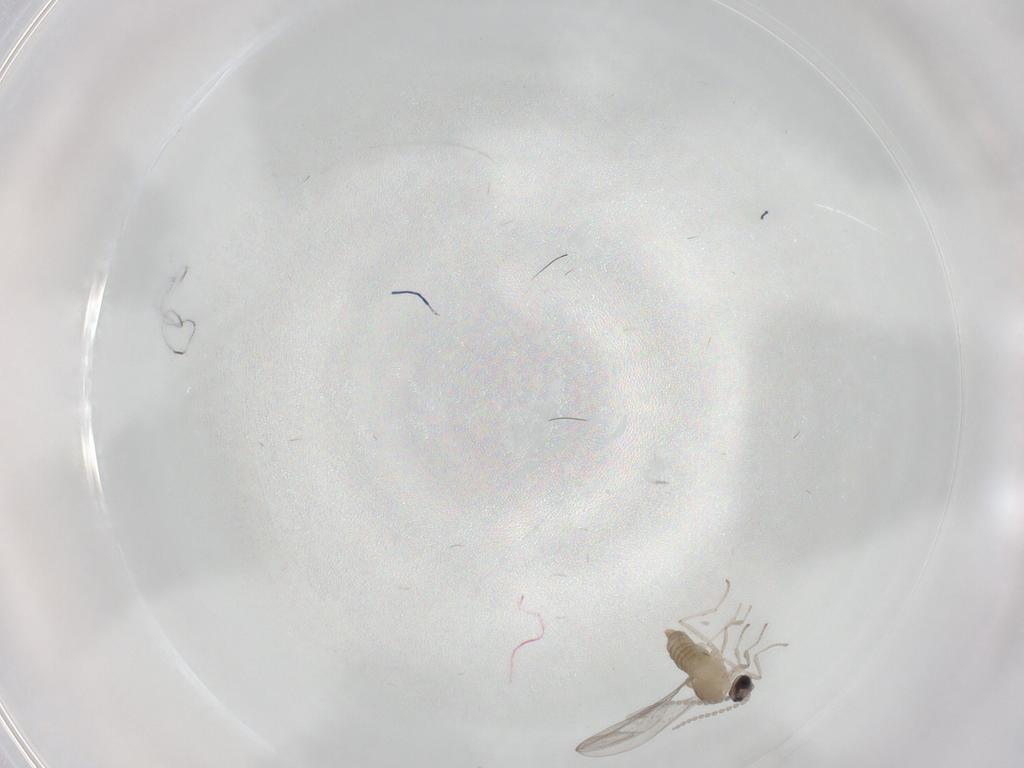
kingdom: Animalia
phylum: Arthropoda
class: Insecta
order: Diptera
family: Cecidomyiidae
